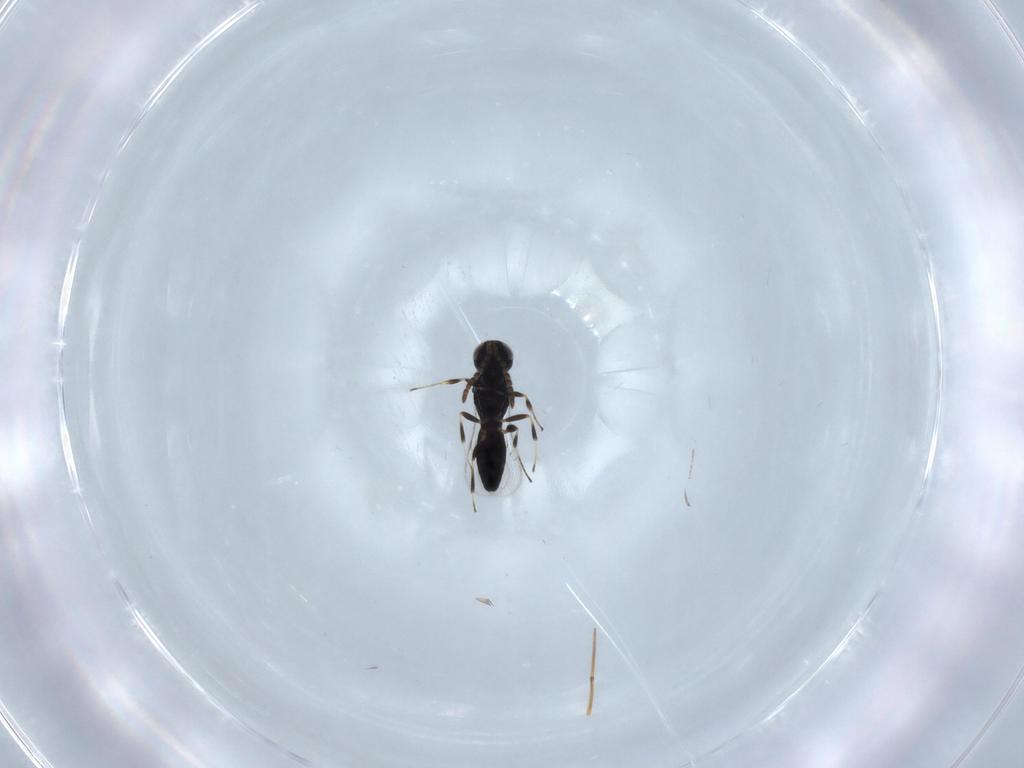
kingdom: Animalia
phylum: Arthropoda
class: Insecta
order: Hymenoptera
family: Scelionidae
